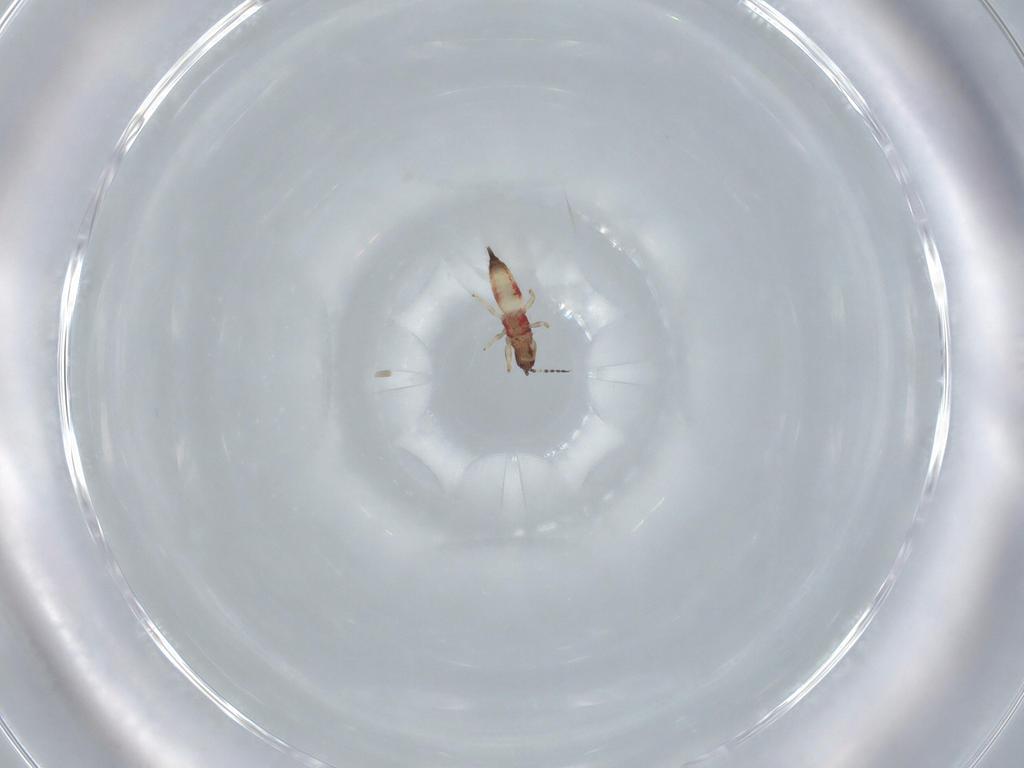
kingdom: Animalia
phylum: Arthropoda
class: Insecta
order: Thysanoptera
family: Phlaeothripidae
